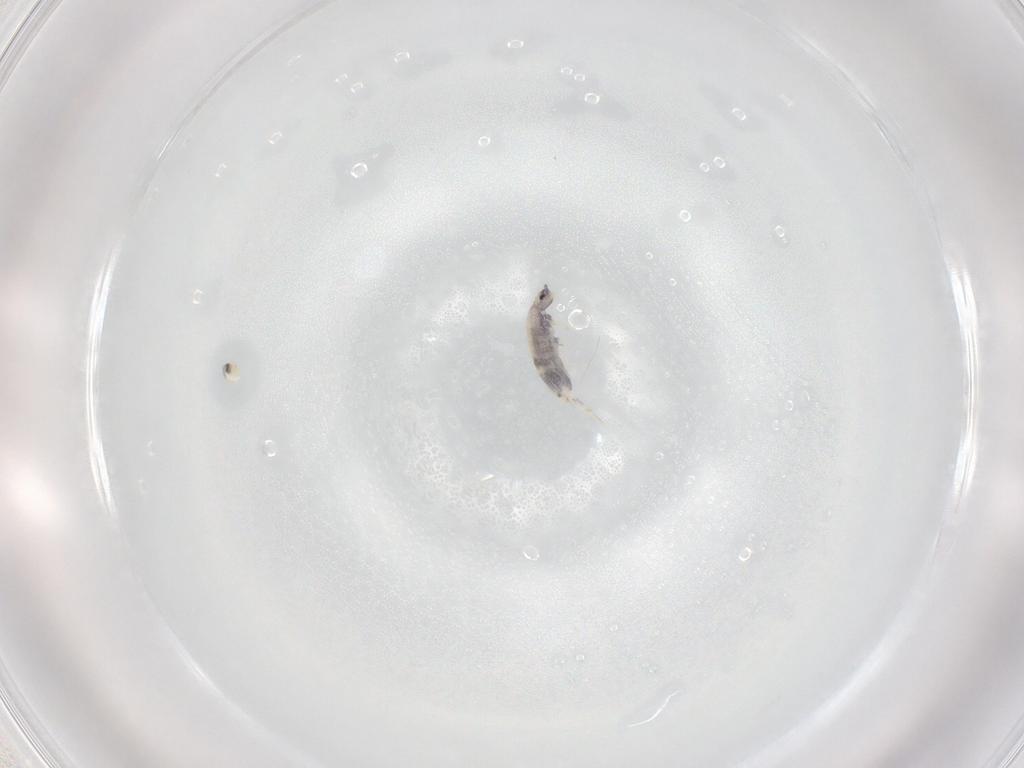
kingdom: Animalia
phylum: Arthropoda
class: Collembola
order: Entomobryomorpha
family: Entomobryidae
